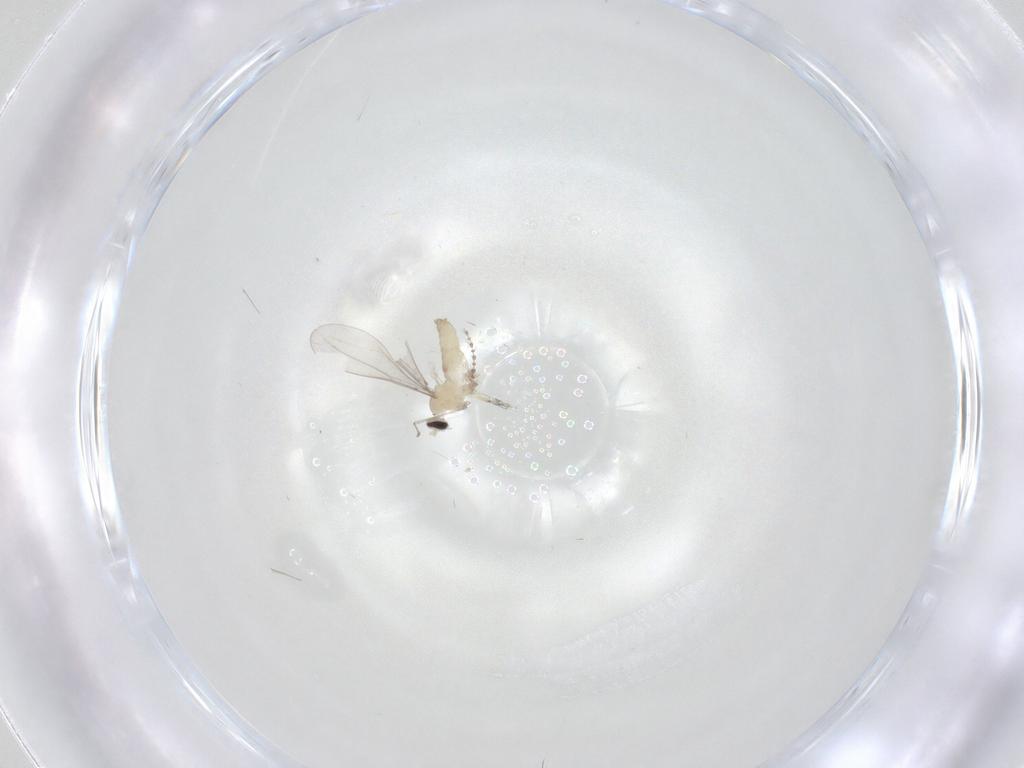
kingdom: Animalia
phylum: Arthropoda
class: Insecta
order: Diptera
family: Cecidomyiidae
